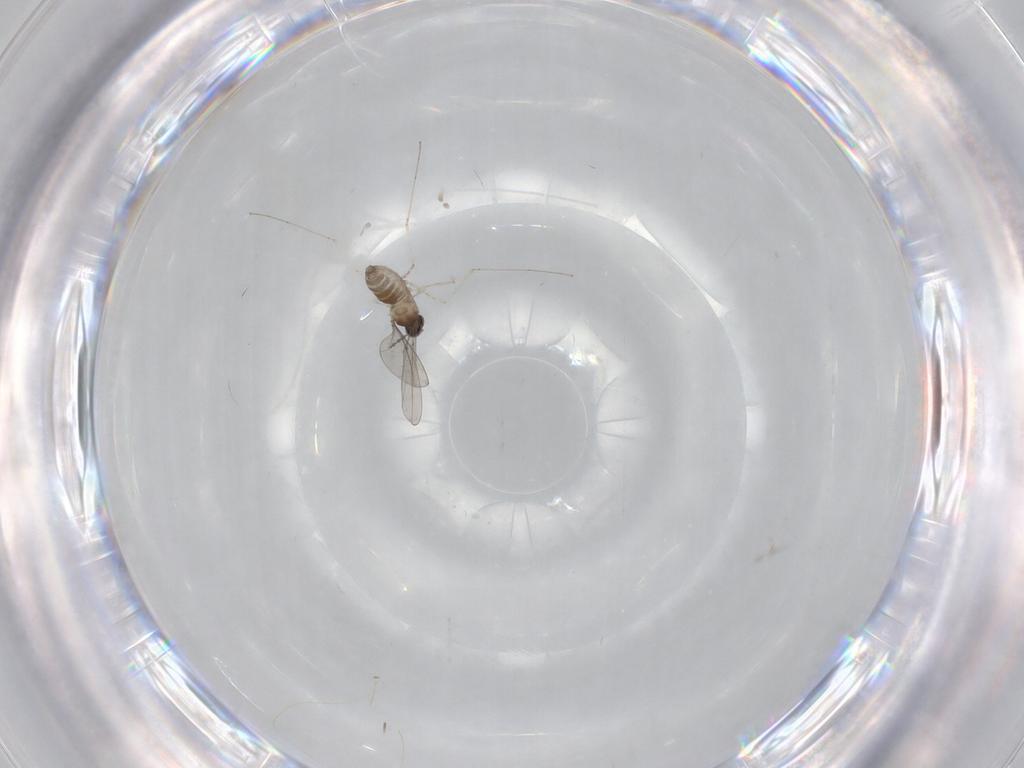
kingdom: Animalia
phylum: Arthropoda
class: Insecta
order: Diptera
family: Cecidomyiidae
